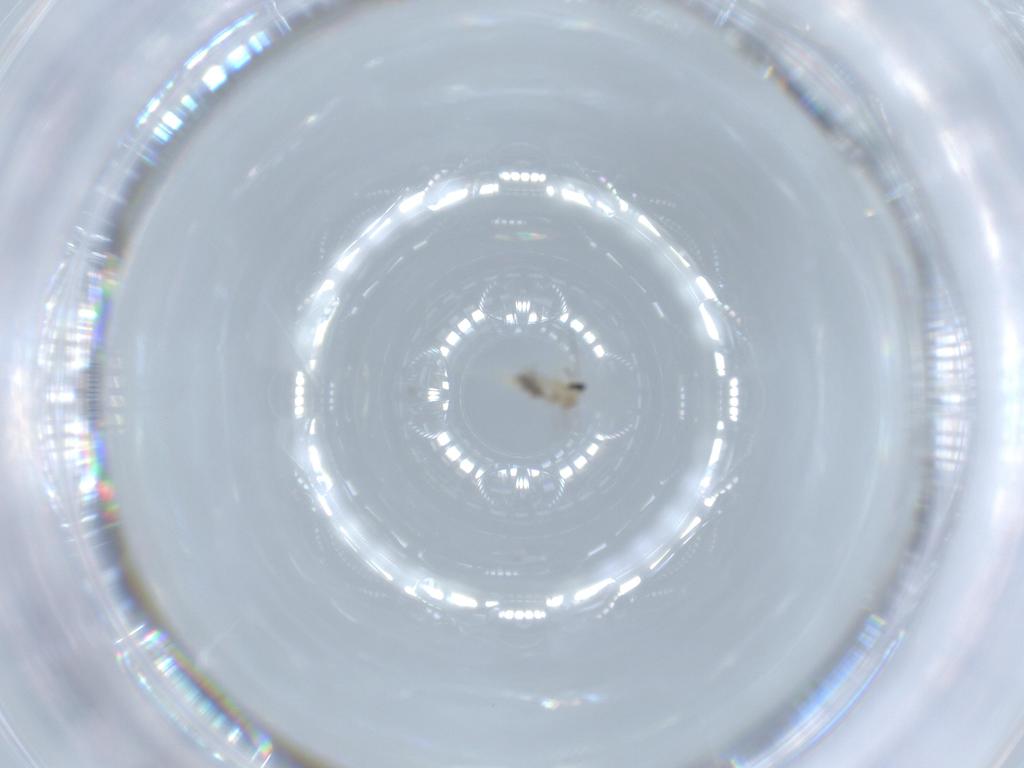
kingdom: Animalia
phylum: Arthropoda
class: Insecta
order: Diptera
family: Cecidomyiidae
